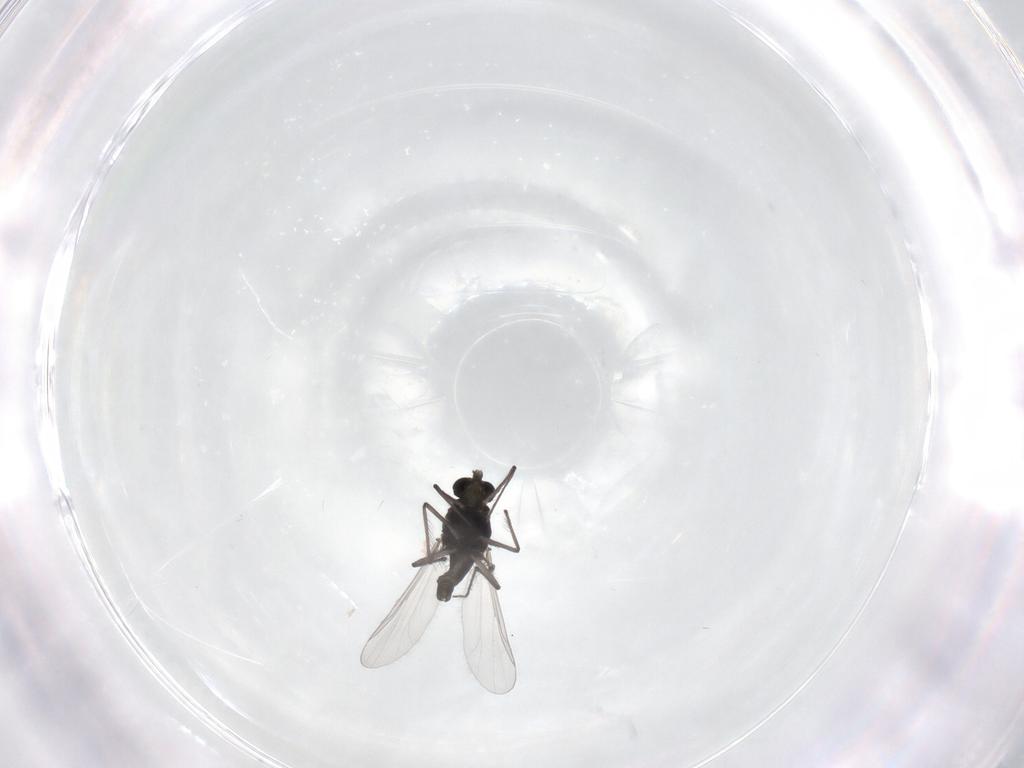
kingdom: Animalia
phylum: Arthropoda
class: Insecta
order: Diptera
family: Chironomidae
